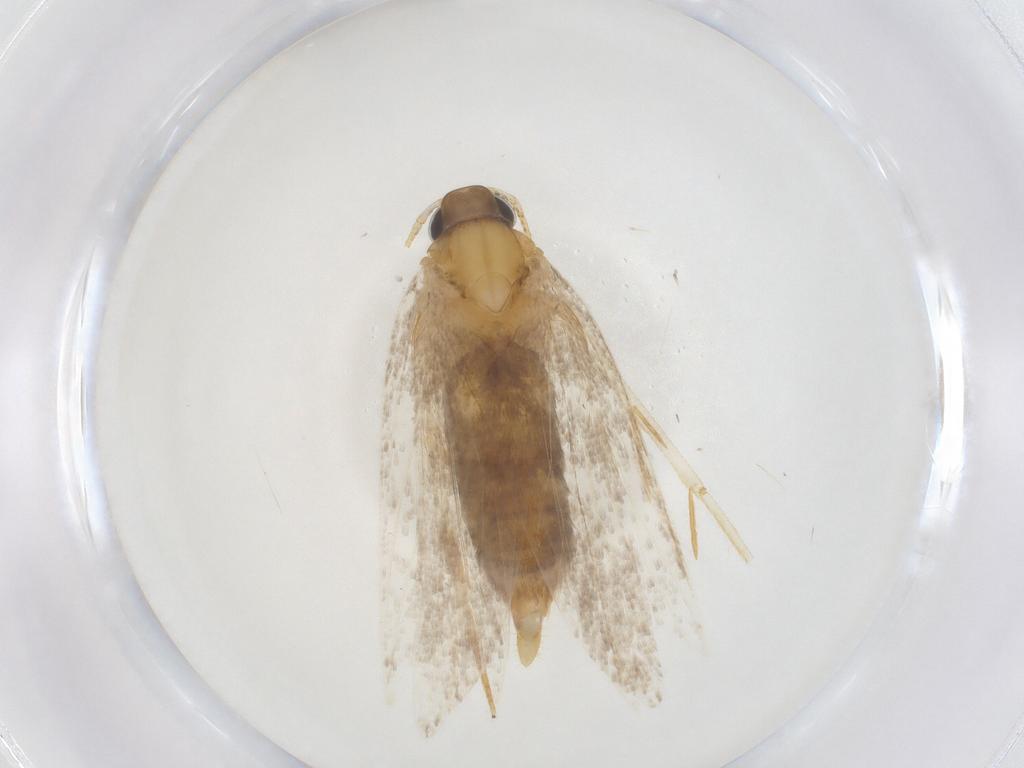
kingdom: Animalia
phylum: Arthropoda
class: Insecta
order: Lepidoptera
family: Oecophoridae
